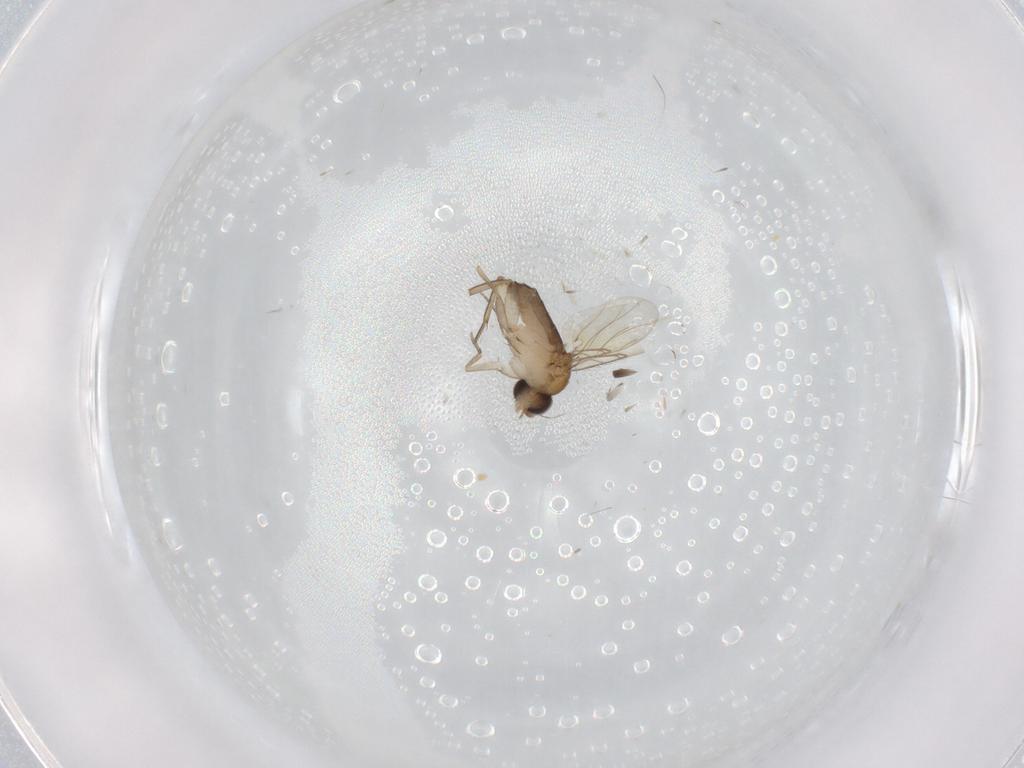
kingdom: Animalia
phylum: Arthropoda
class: Insecta
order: Diptera
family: Phoridae
